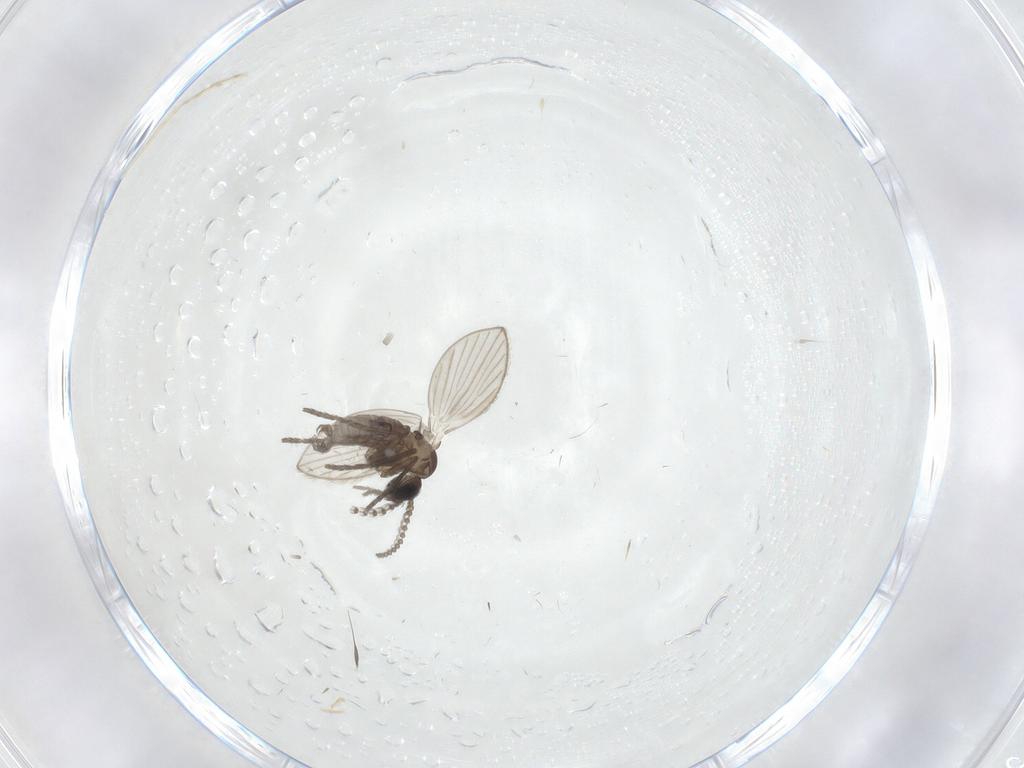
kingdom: Animalia
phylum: Arthropoda
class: Insecta
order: Diptera
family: Psychodidae
